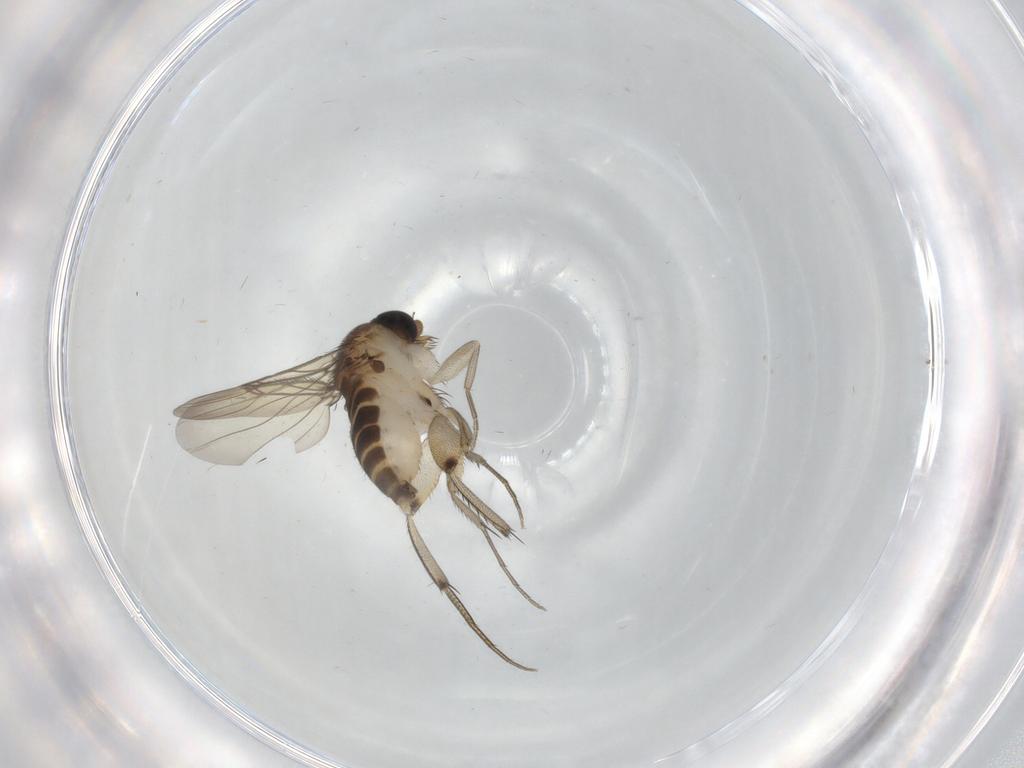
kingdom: Animalia
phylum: Arthropoda
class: Insecta
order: Diptera
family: Phoridae
